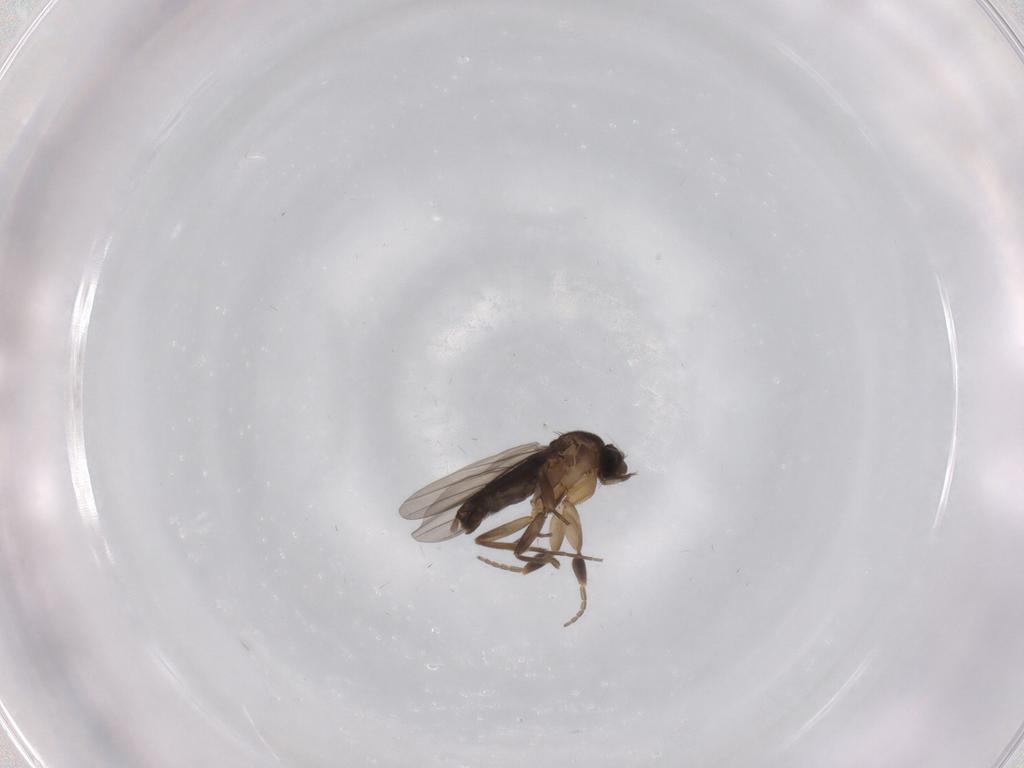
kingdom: Animalia
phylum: Arthropoda
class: Insecta
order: Diptera
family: Phoridae
